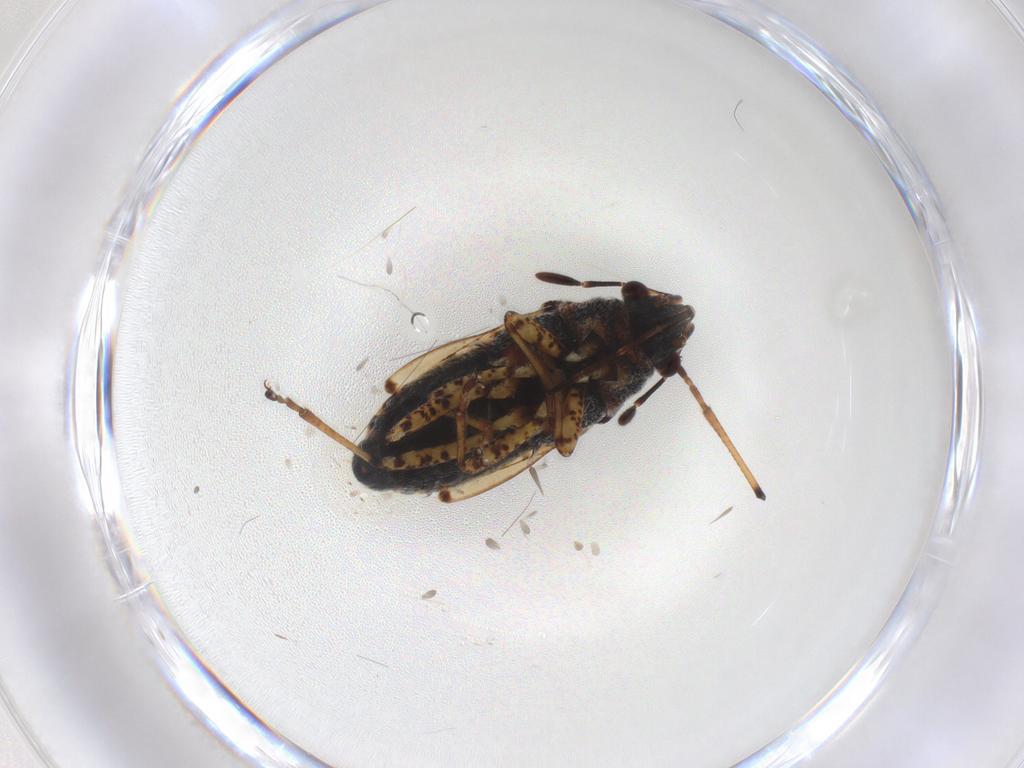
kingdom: Animalia
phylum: Arthropoda
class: Insecta
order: Hemiptera
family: Lygaeidae
